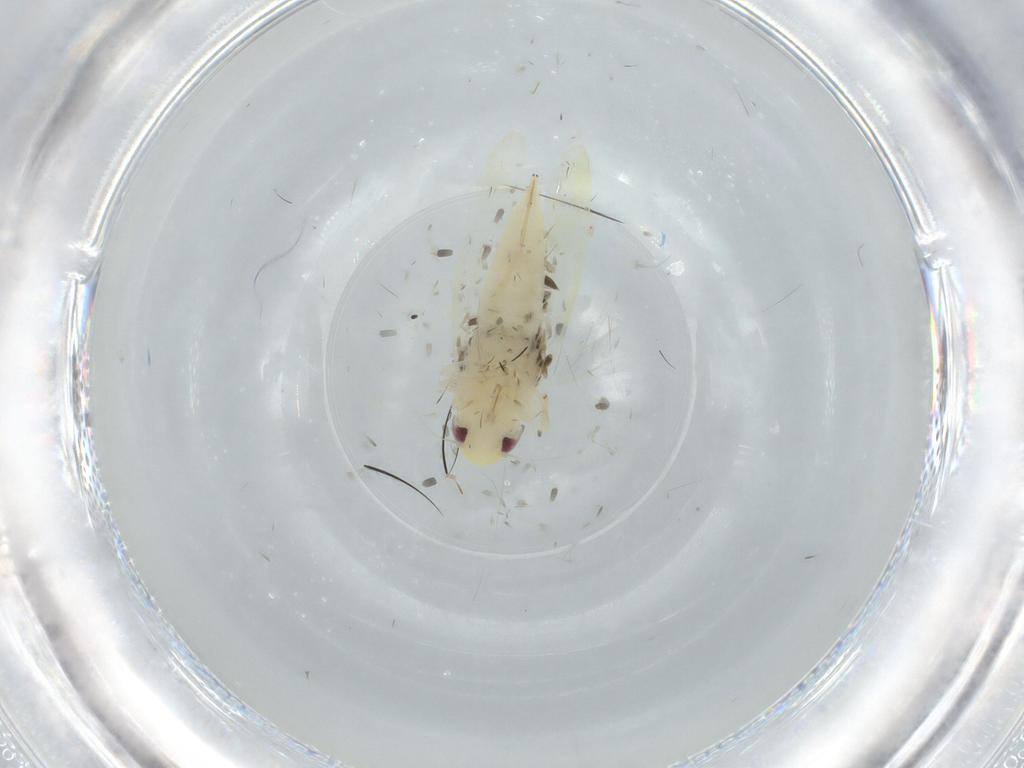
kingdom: Animalia
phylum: Arthropoda
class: Insecta
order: Hemiptera
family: Cicadellidae
